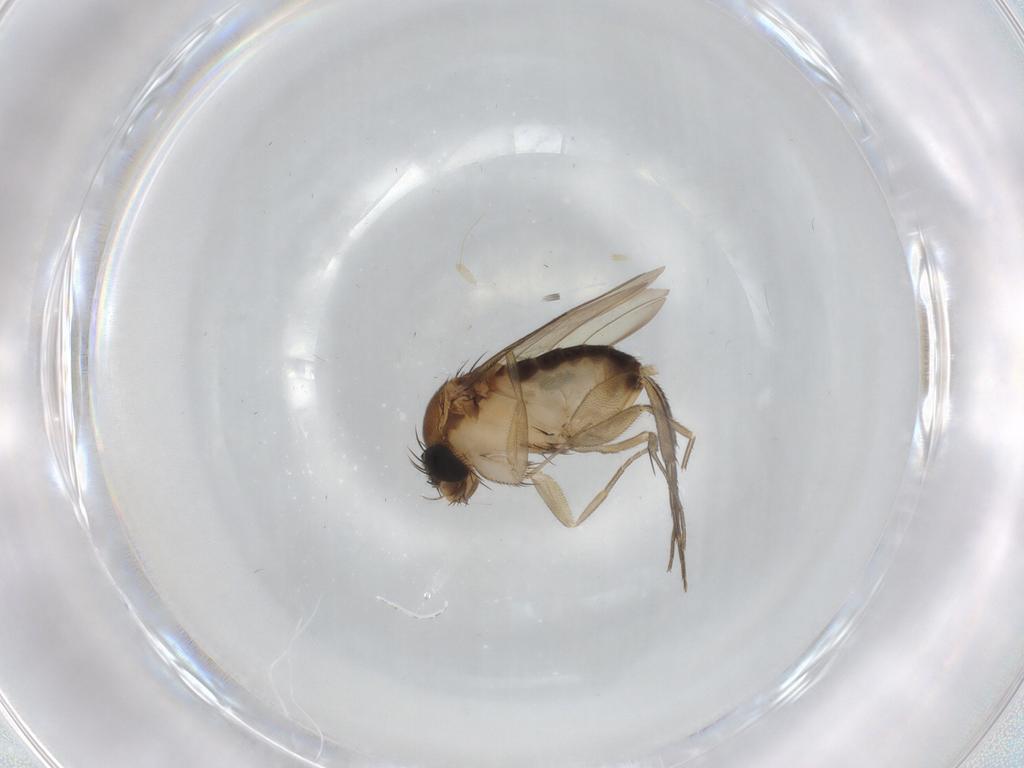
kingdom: Animalia
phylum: Arthropoda
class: Insecta
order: Diptera
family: Phoridae
